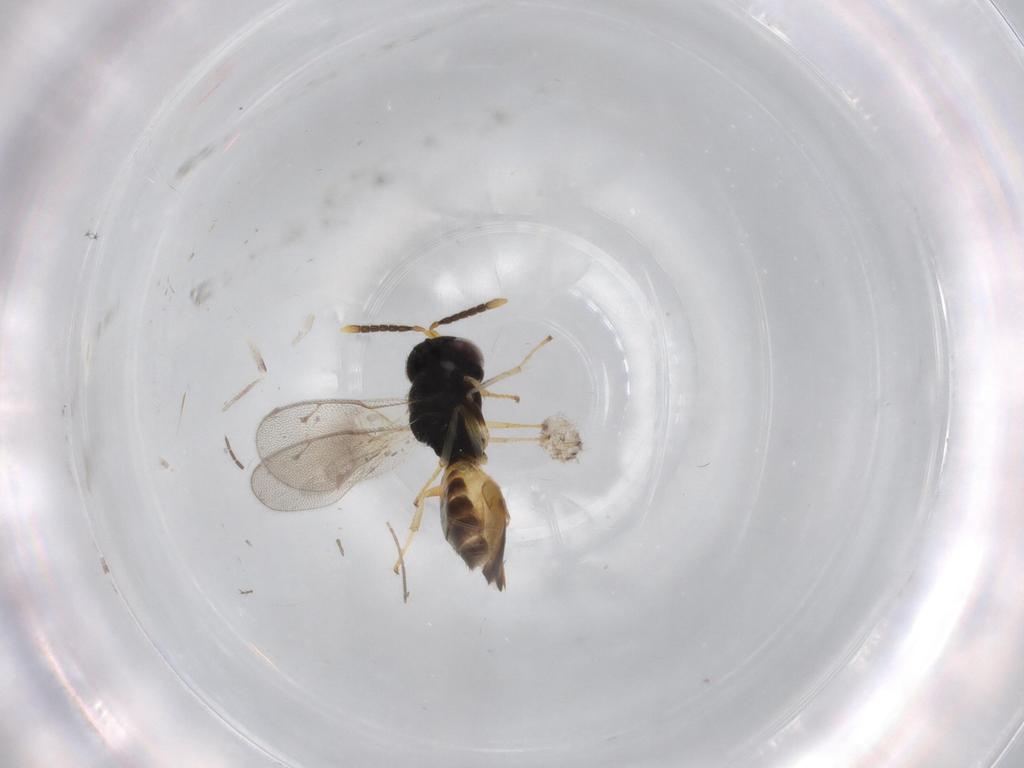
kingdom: Animalia
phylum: Arthropoda
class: Insecta
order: Hymenoptera
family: Pteromalidae
